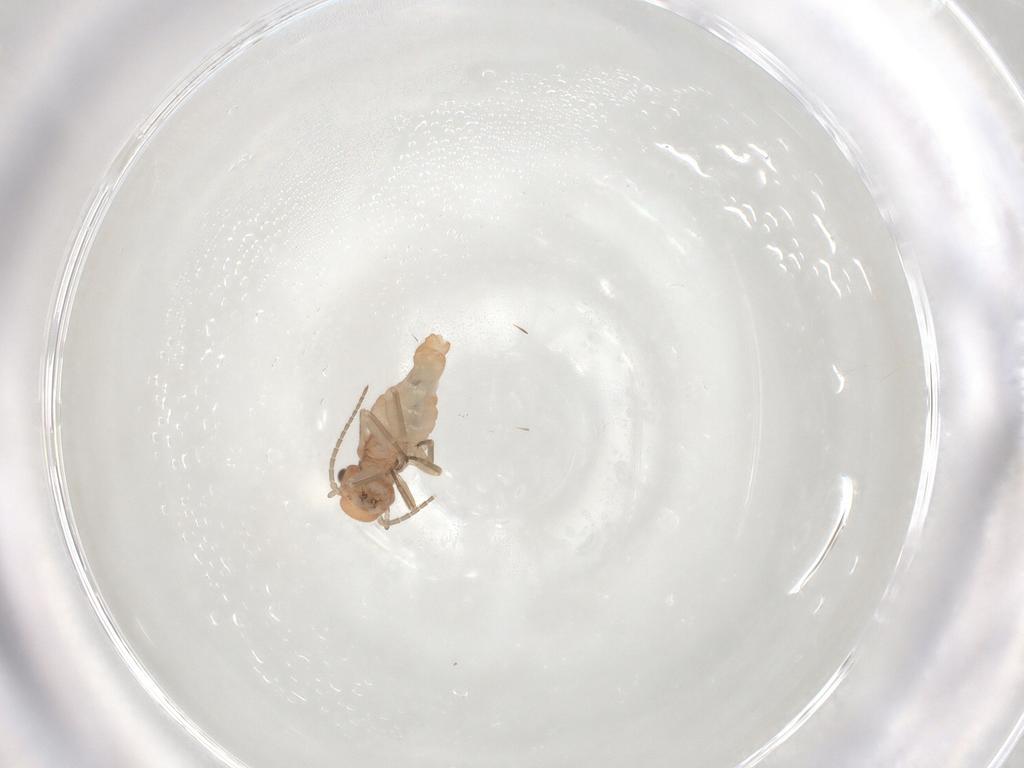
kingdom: Animalia
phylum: Arthropoda
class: Insecta
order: Psocodea
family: Caeciliusidae
